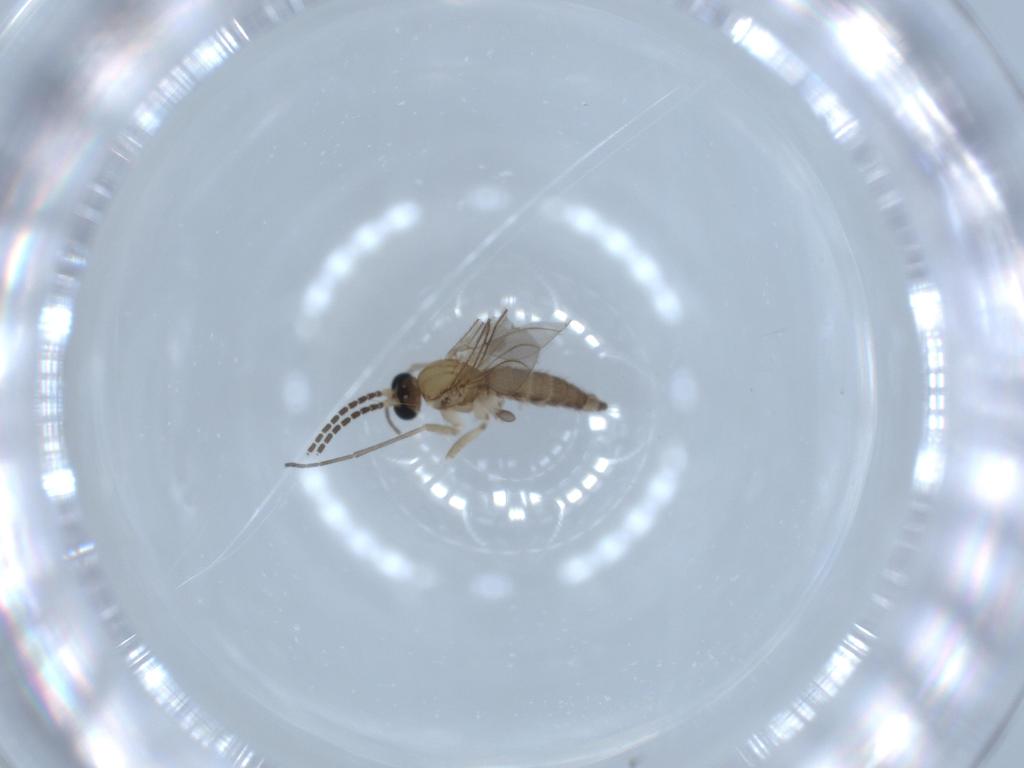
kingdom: Animalia
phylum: Arthropoda
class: Insecta
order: Diptera
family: Sciaridae
